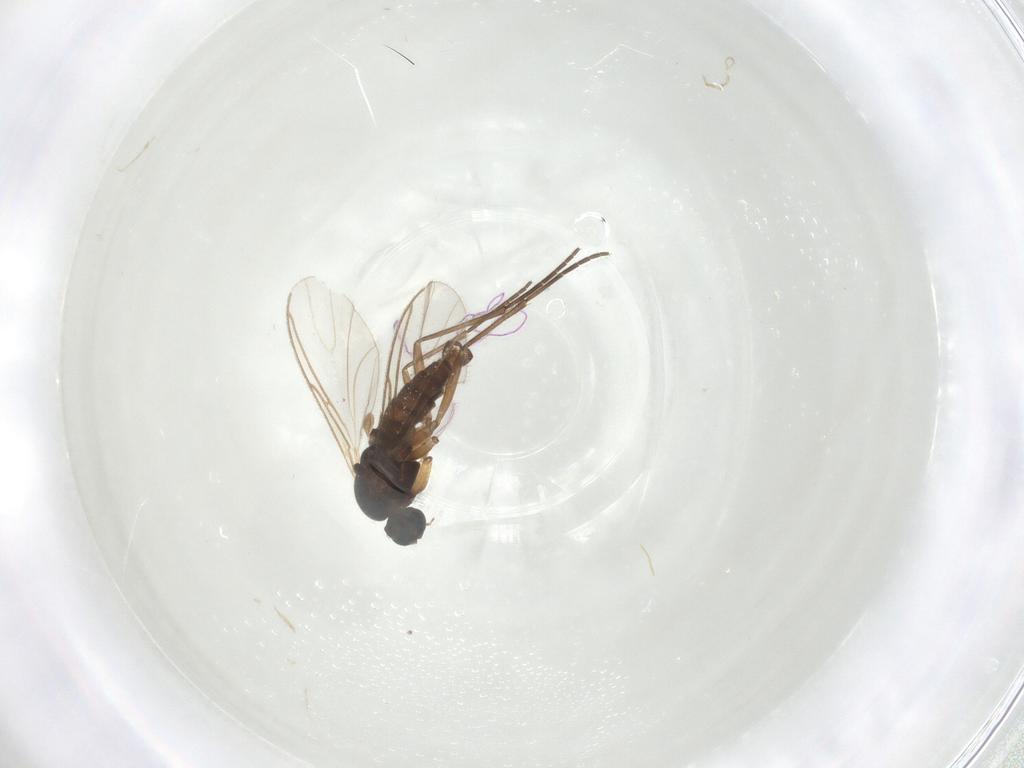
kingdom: Animalia
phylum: Arthropoda
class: Insecta
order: Diptera
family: Sciaridae
